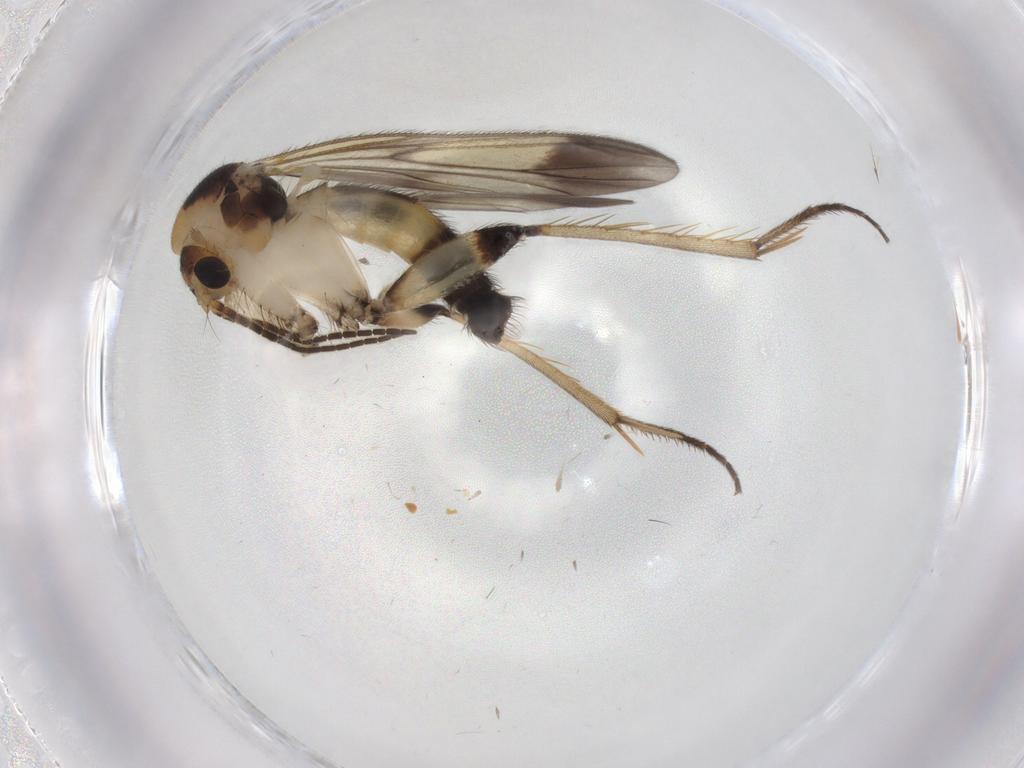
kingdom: Animalia
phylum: Arthropoda
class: Insecta
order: Diptera
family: Mycetophilidae
